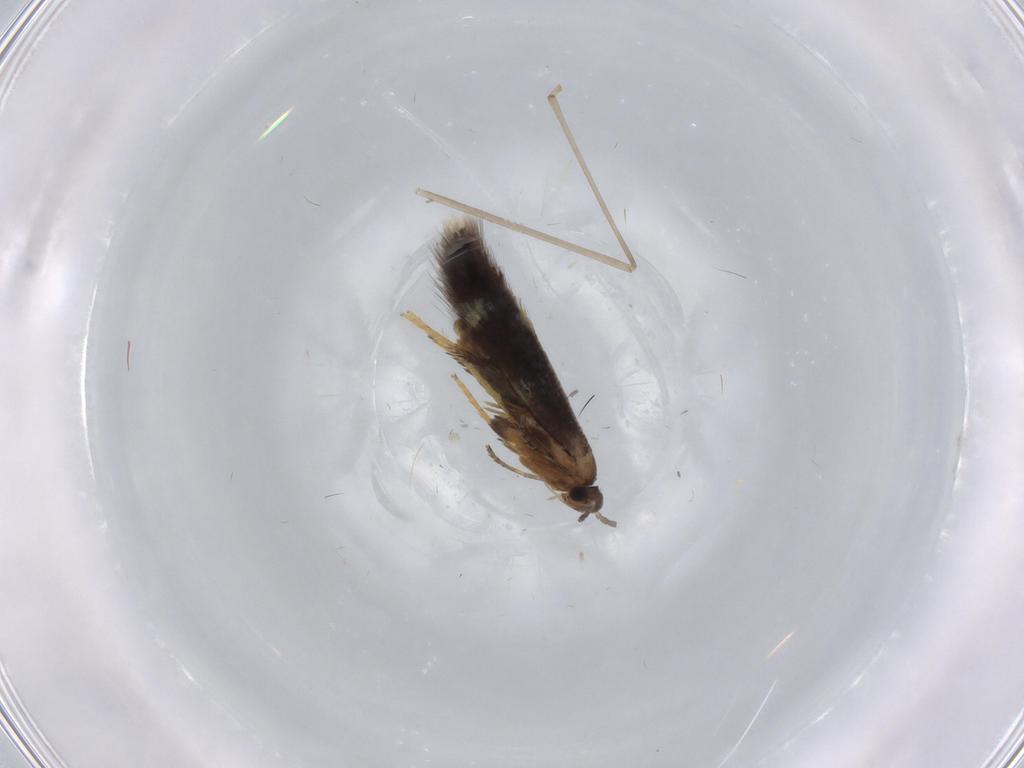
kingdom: Animalia
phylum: Arthropoda
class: Insecta
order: Lepidoptera
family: Heliozelidae
